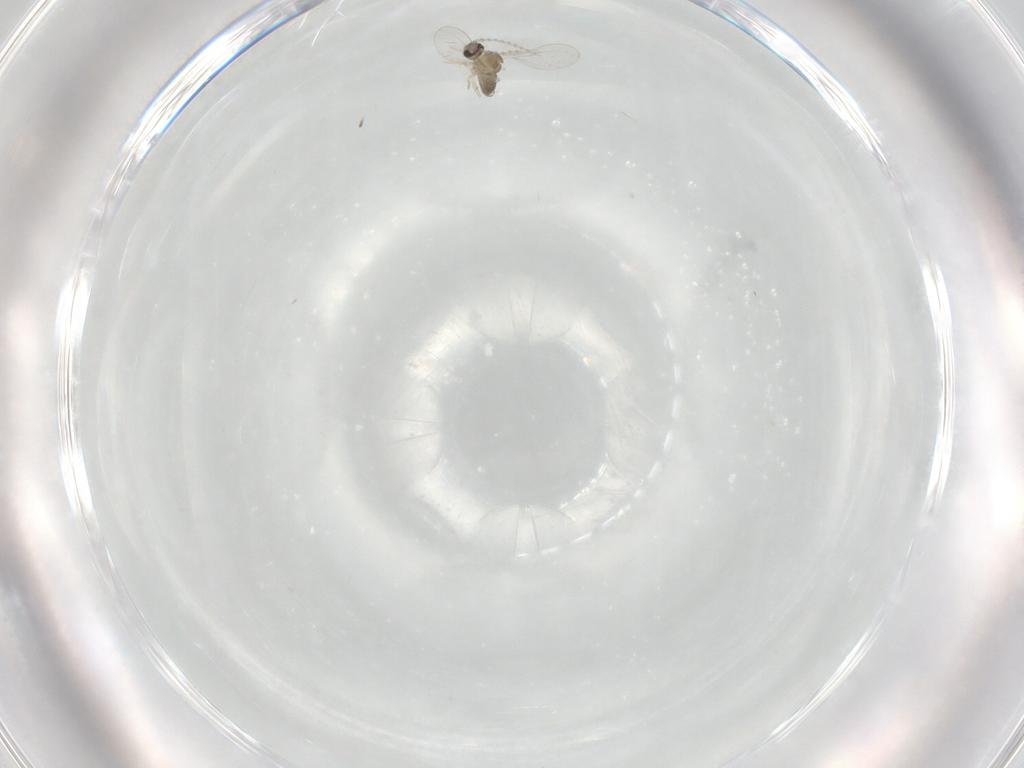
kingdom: Animalia
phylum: Arthropoda
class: Insecta
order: Diptera
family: Cecidomyiidae
